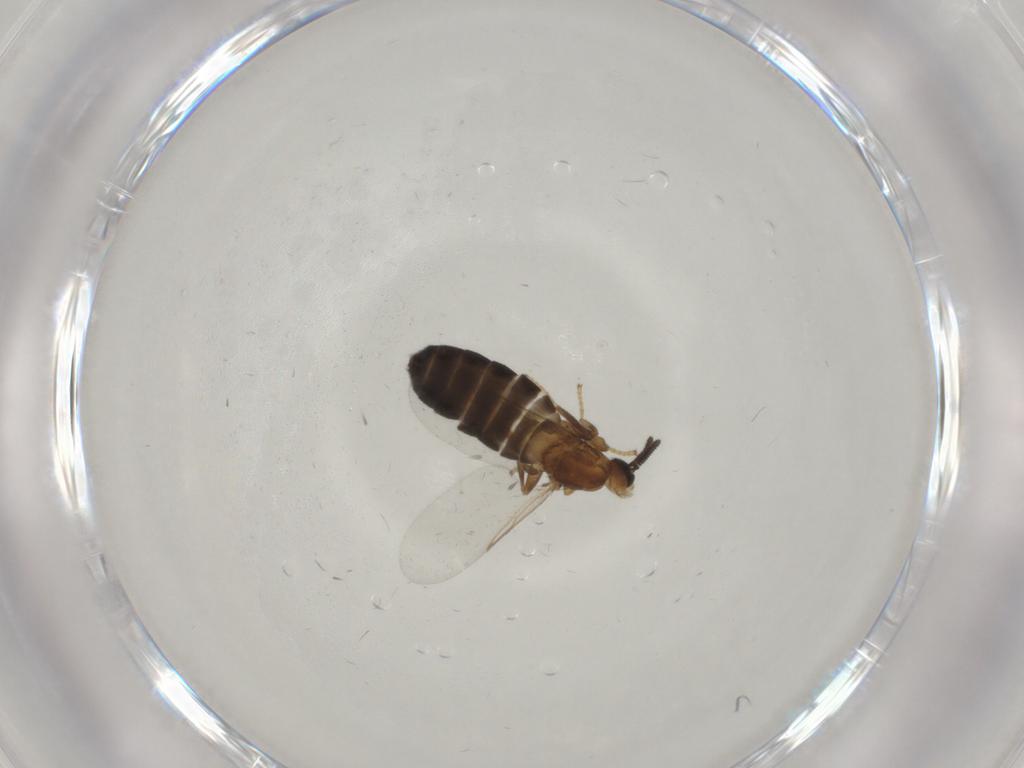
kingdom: Animalia
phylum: Arthropoda
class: Insecta
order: Diptera
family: Scatopsidae
